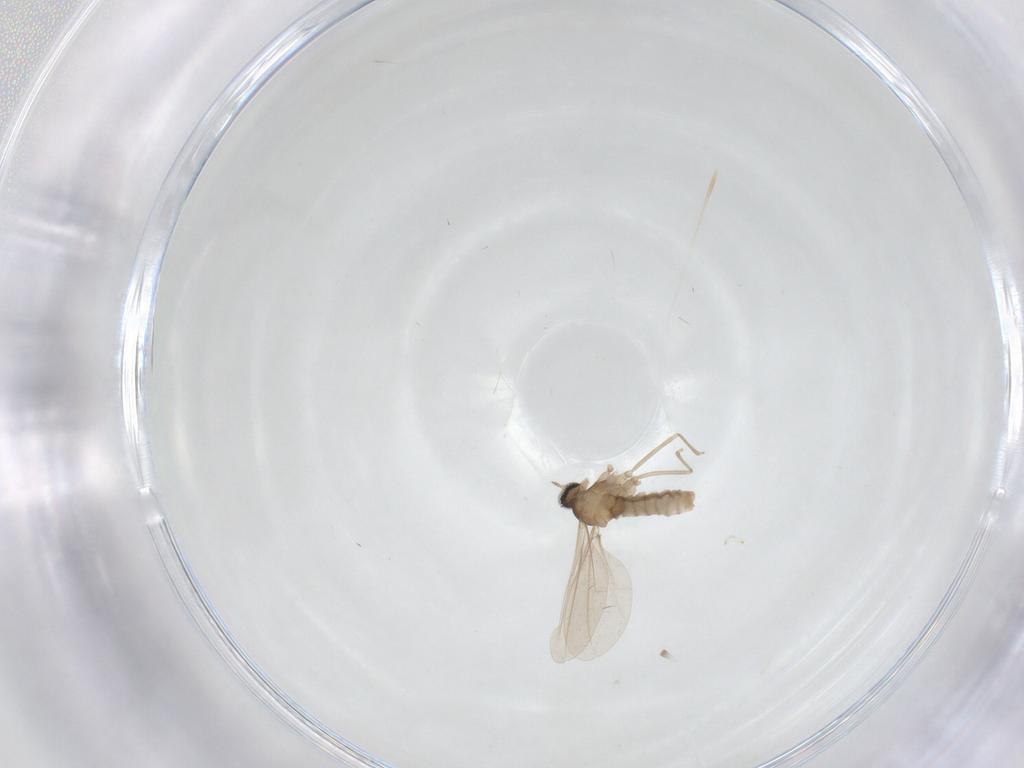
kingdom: Animalia
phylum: Arthropoda
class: Insecta
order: Diptera
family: Cecidomyiidae
